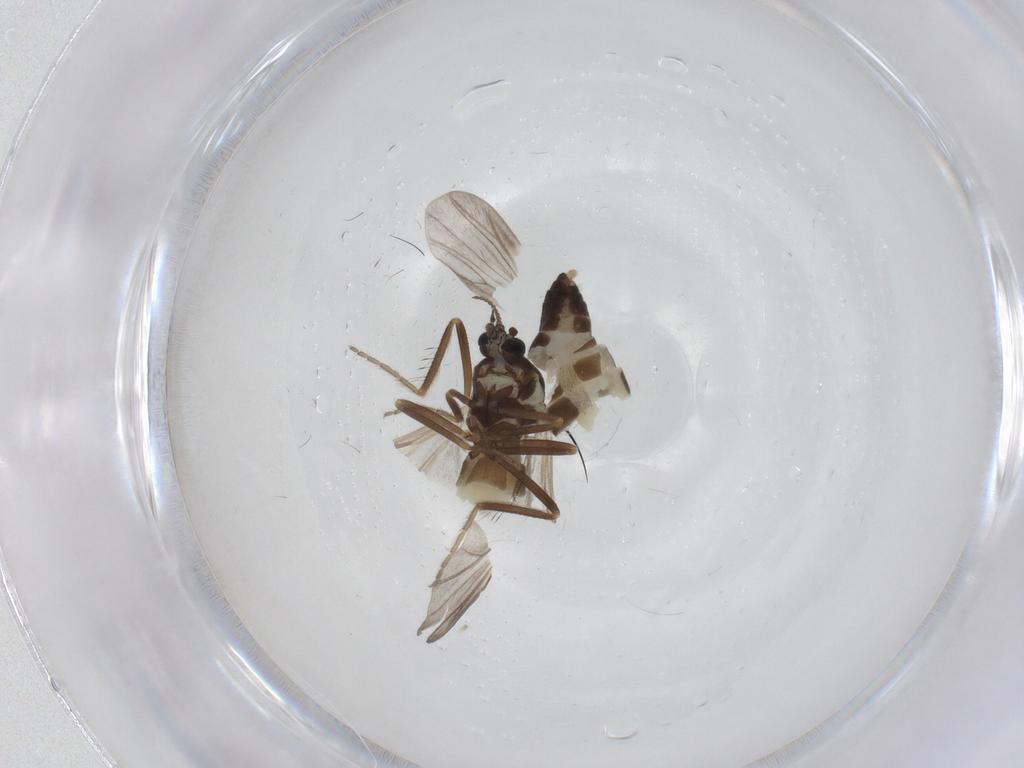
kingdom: Animalia
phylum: Arthropoda
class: Insecta
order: Diptera
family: Ceratopogonidae
